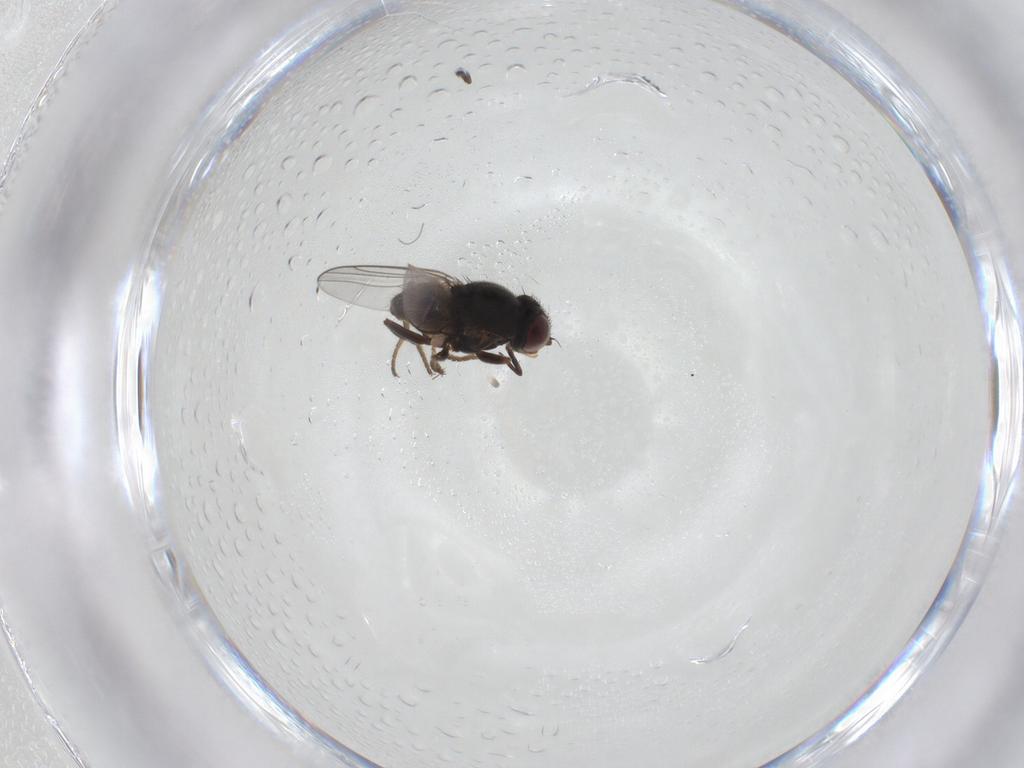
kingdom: Animalia
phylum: Arthropoda
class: Insecta
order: Diptera
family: Chloropidae
